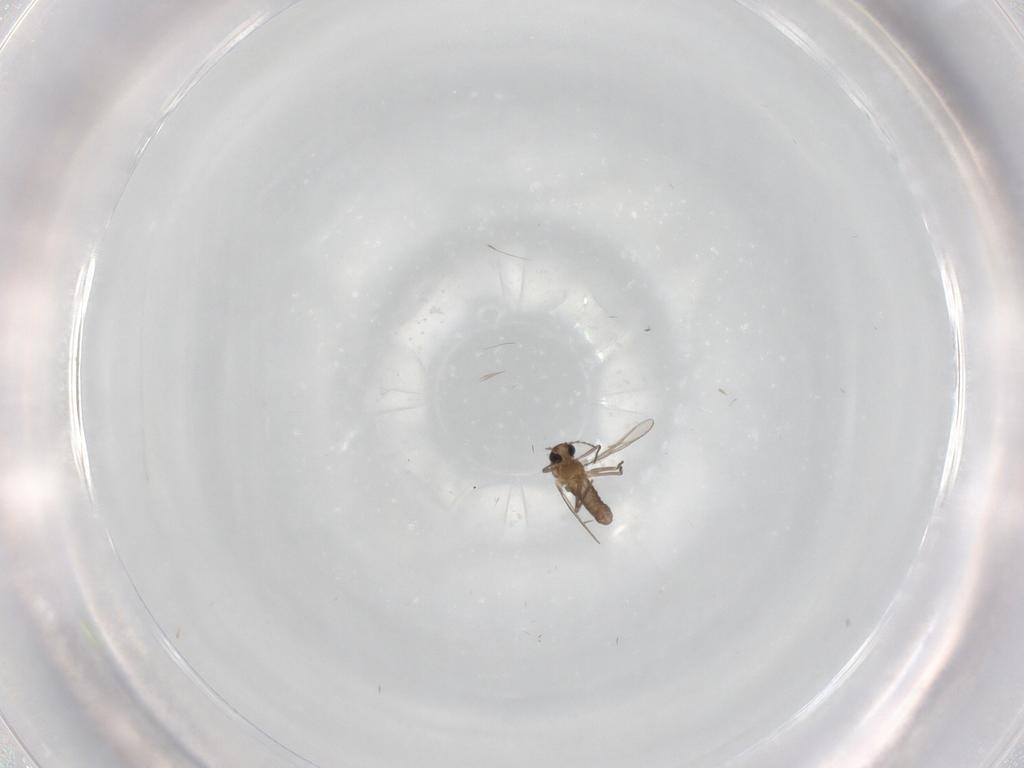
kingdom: Animalia
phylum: Arthropoda
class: Insecta
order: Diptera
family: Chironomidae
